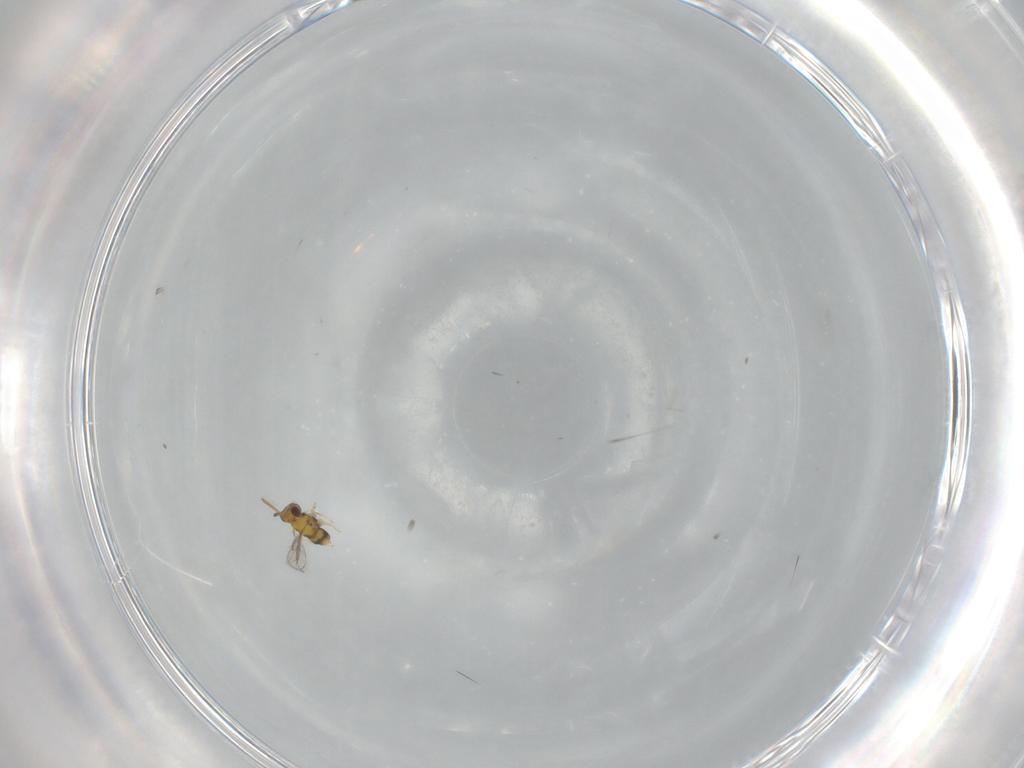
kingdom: Animalia
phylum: Arthropoda
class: Insecta
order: Hymenoptera
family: Aphelinidae
